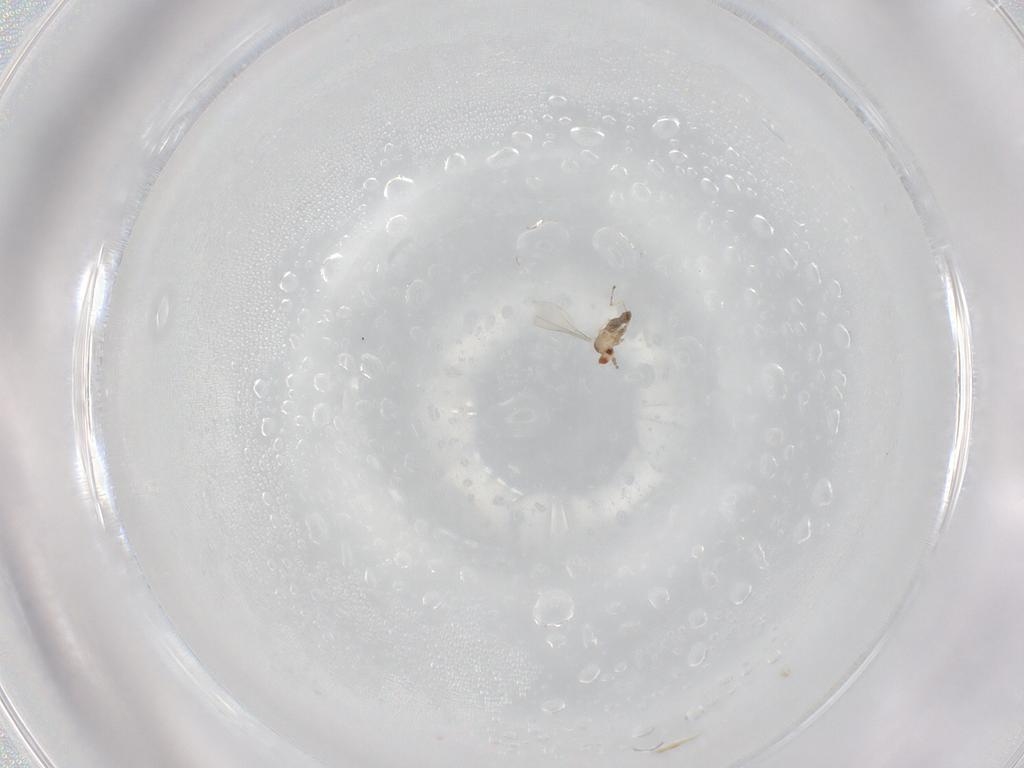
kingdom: Animalia
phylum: Arthropoda
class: Insecta
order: Diptera
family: Cecidomyiidae
